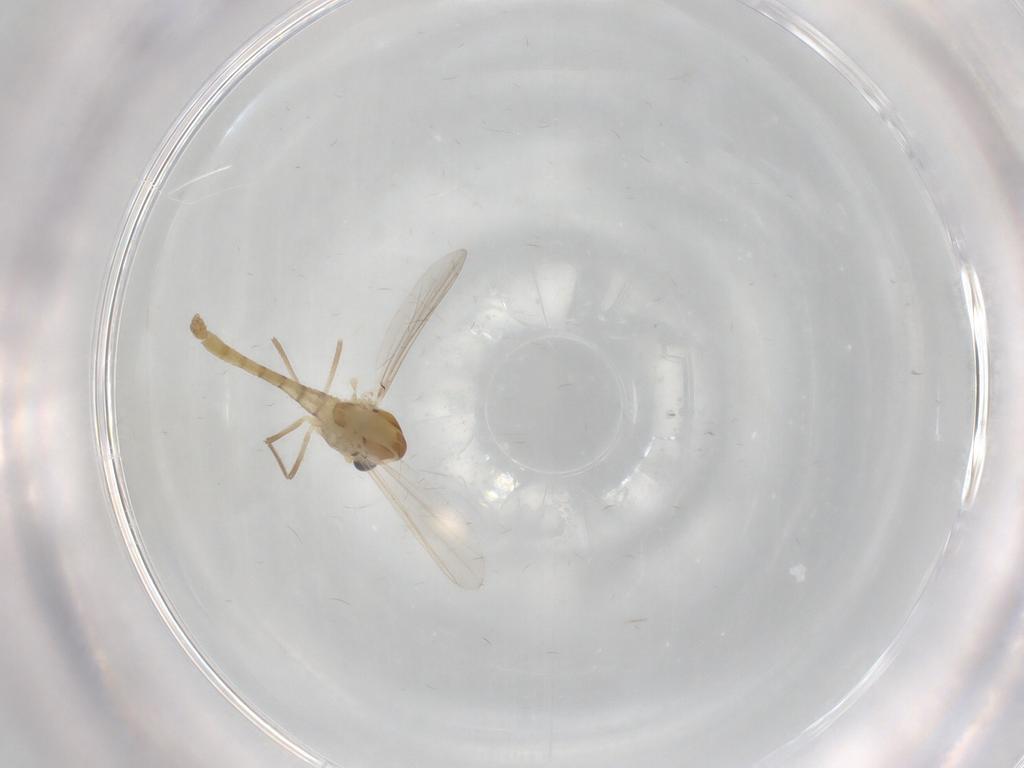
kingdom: Animalia
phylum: Arthropoda
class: Insecta
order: Diptera
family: Chironomidae
